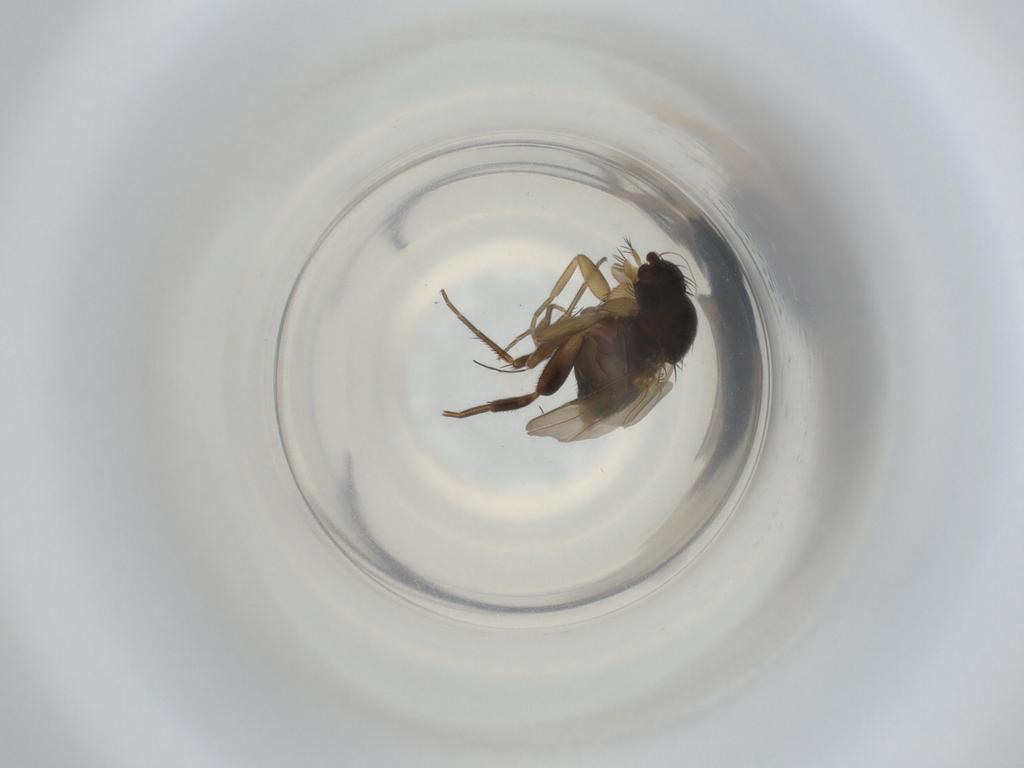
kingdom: Animalia
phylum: Arthropoda
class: Insecta
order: Diptera
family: Phoridae
